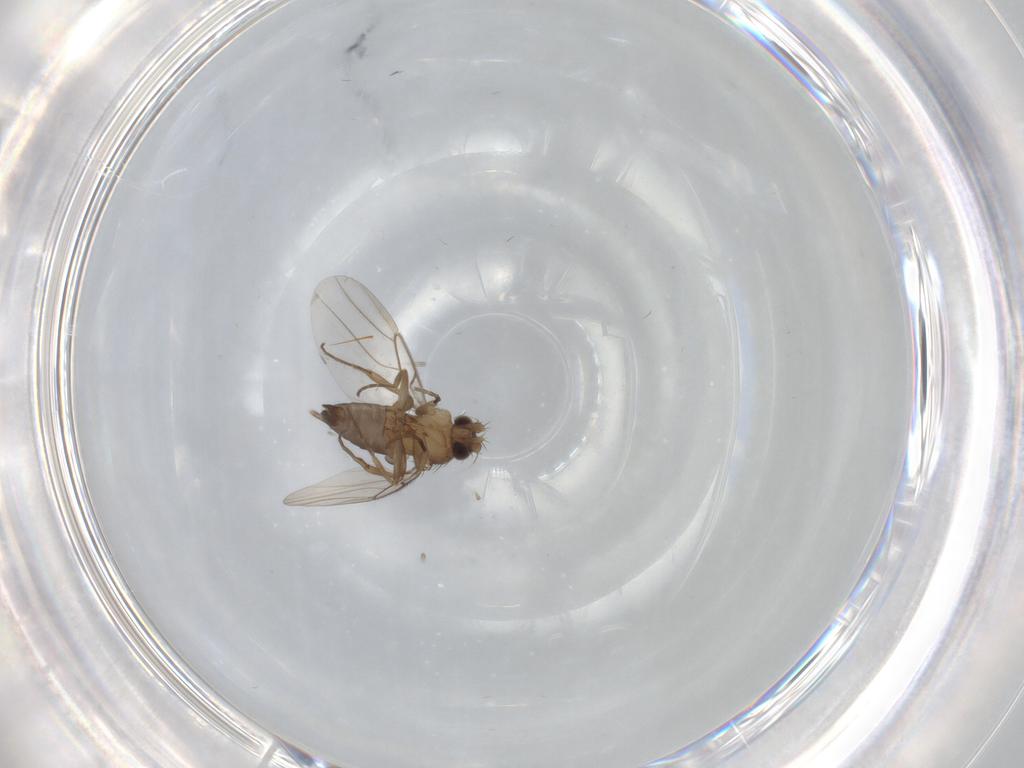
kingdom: Animalia
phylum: Arthropoda
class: Insecta
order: Diptera
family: Phoridae
